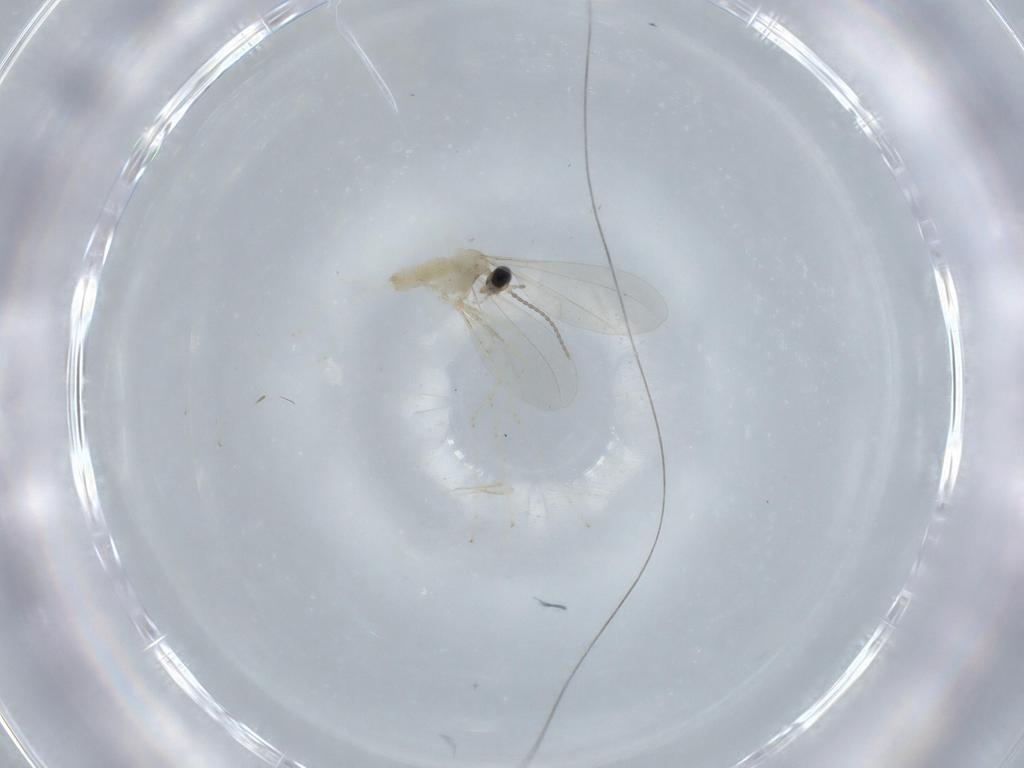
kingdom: Animalia
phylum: Arthropoda
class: Insecta
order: Diptera
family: Cecidomyiidae
